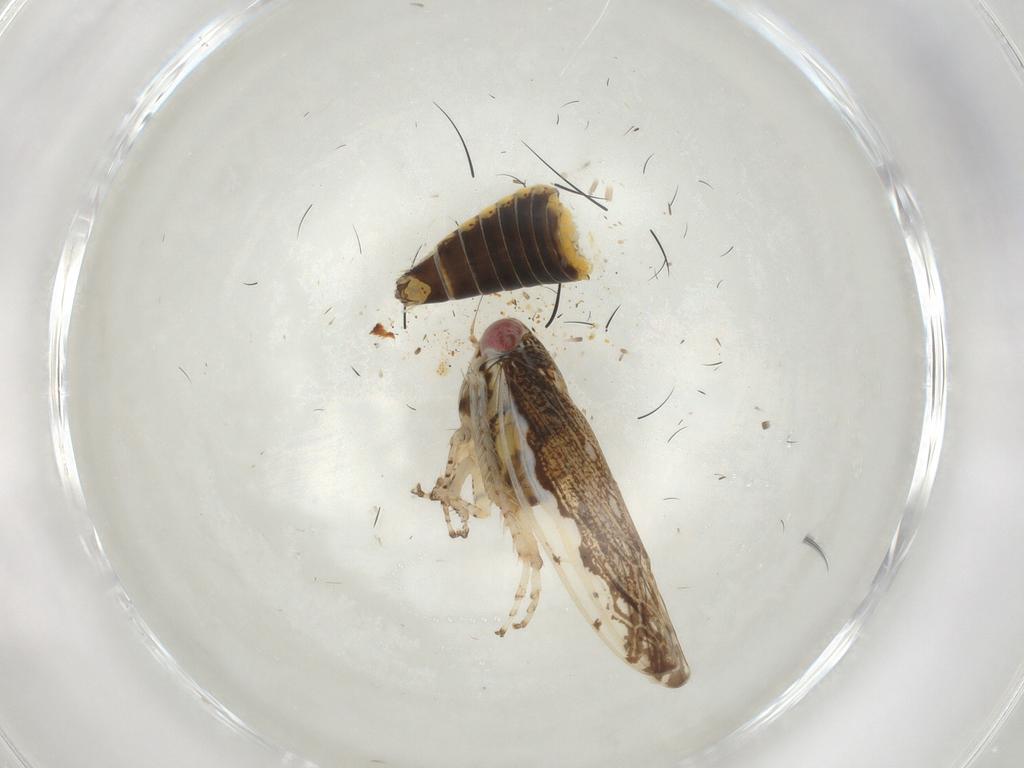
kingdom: Animalia
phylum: Arthropoda
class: Insecta
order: Hemiptera
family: Cicadellidae
